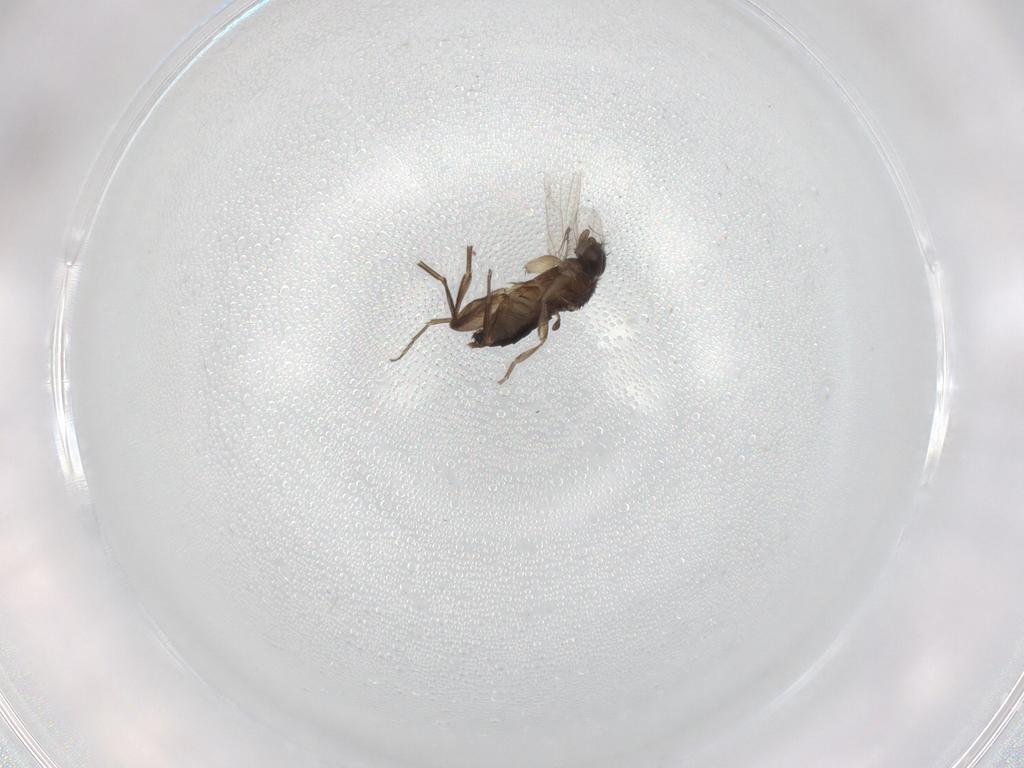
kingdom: Animalia
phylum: Arthropoda
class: Insecta
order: Diptera
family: Phoridae
